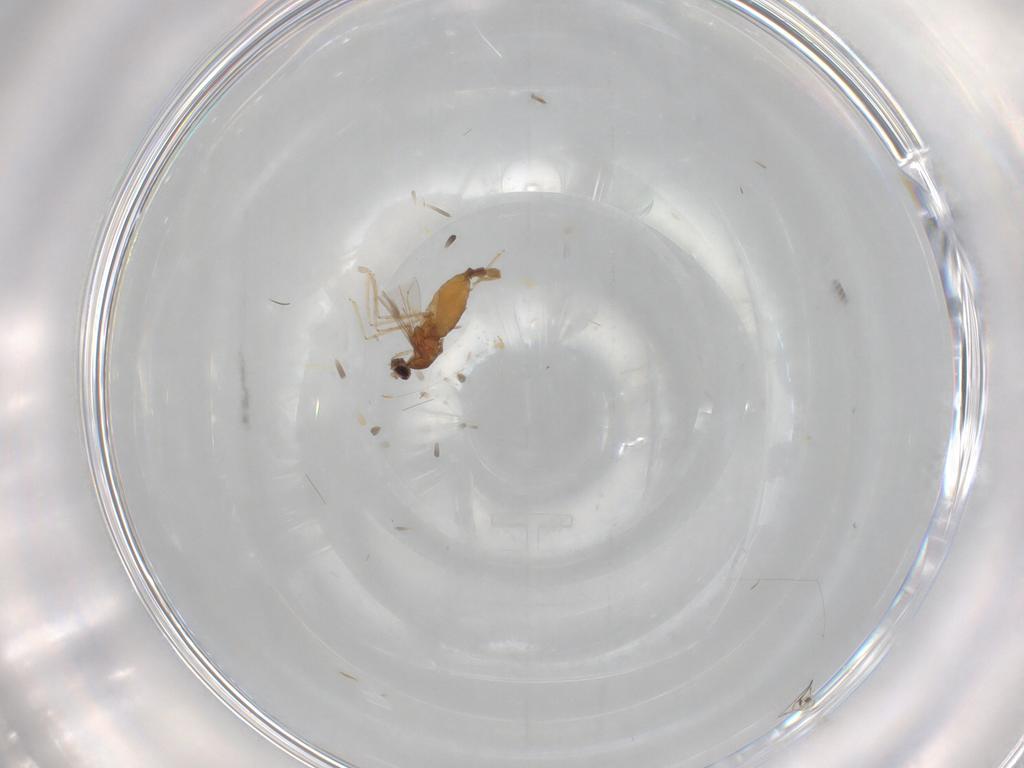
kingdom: Animalia
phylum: Arthropoda
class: Insecta
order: Diptera
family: Cecidomyiidae
